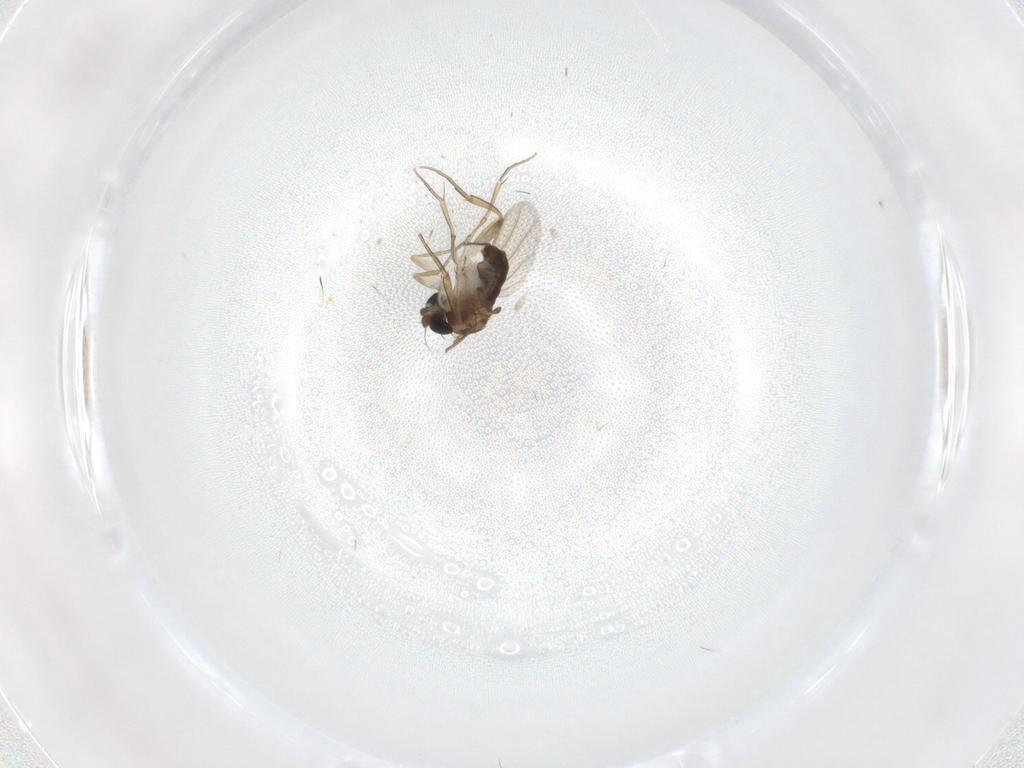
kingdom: Animalia
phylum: Arthropoda
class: Insecta
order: Diptera
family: Phoridae
